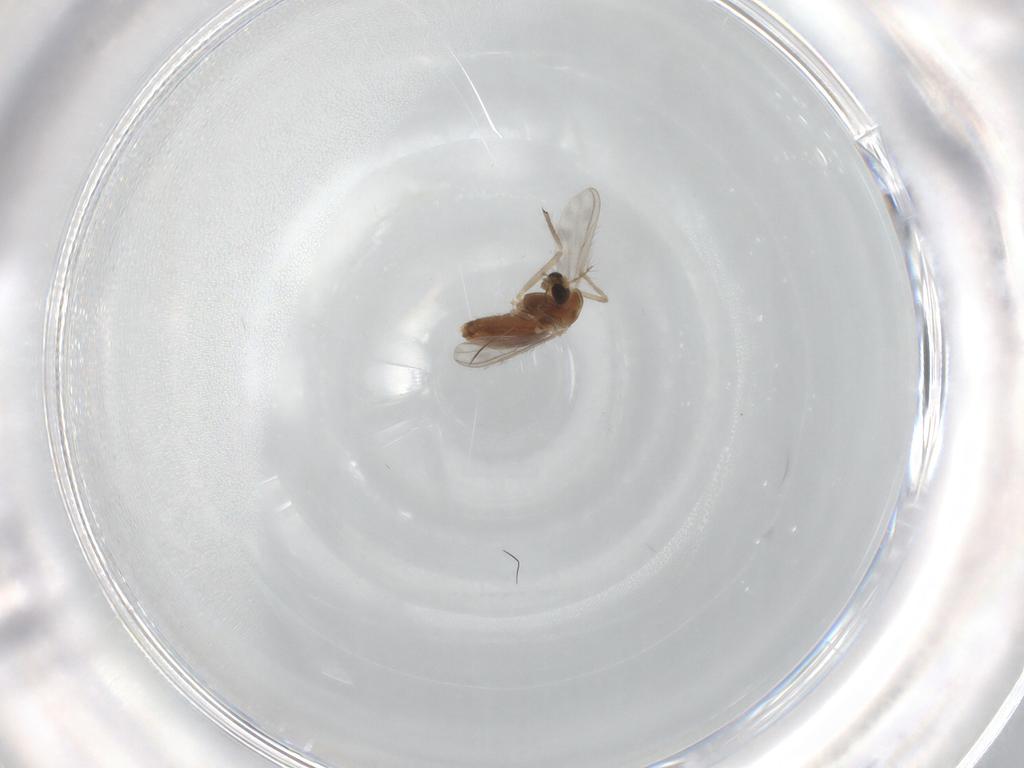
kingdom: Animalia
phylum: Arthropoda
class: Insecta
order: Diptera
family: Chironomidae
